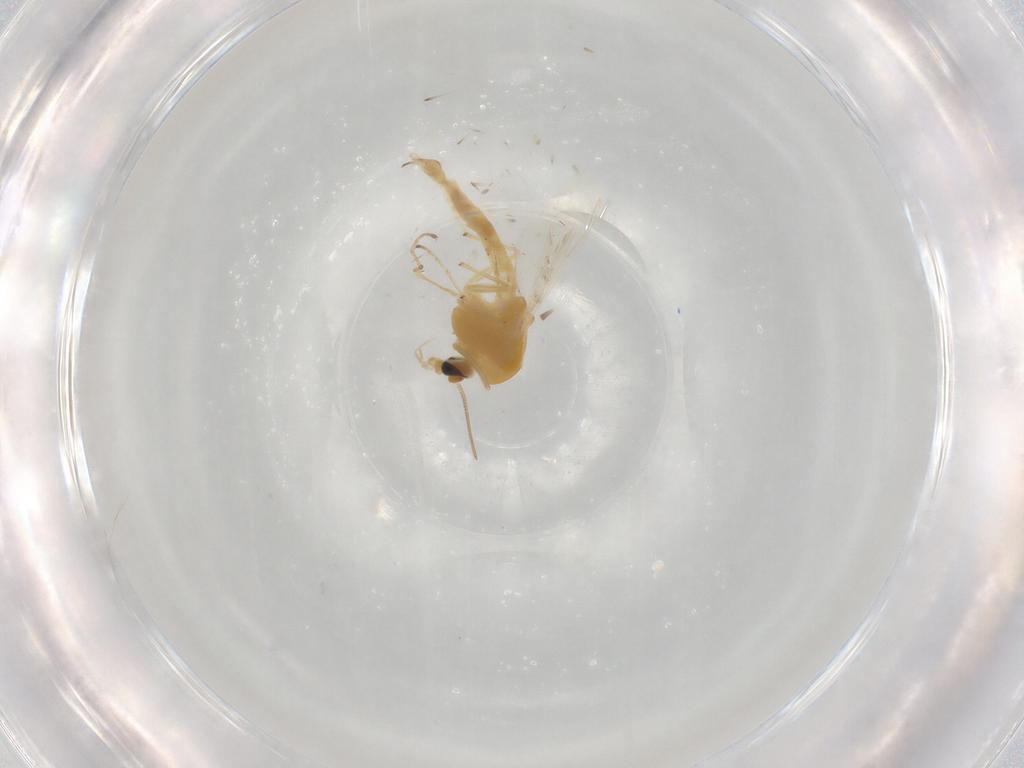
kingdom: Animalia
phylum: Arthropoda
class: Insecta
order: Diptera
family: Chironomidae
